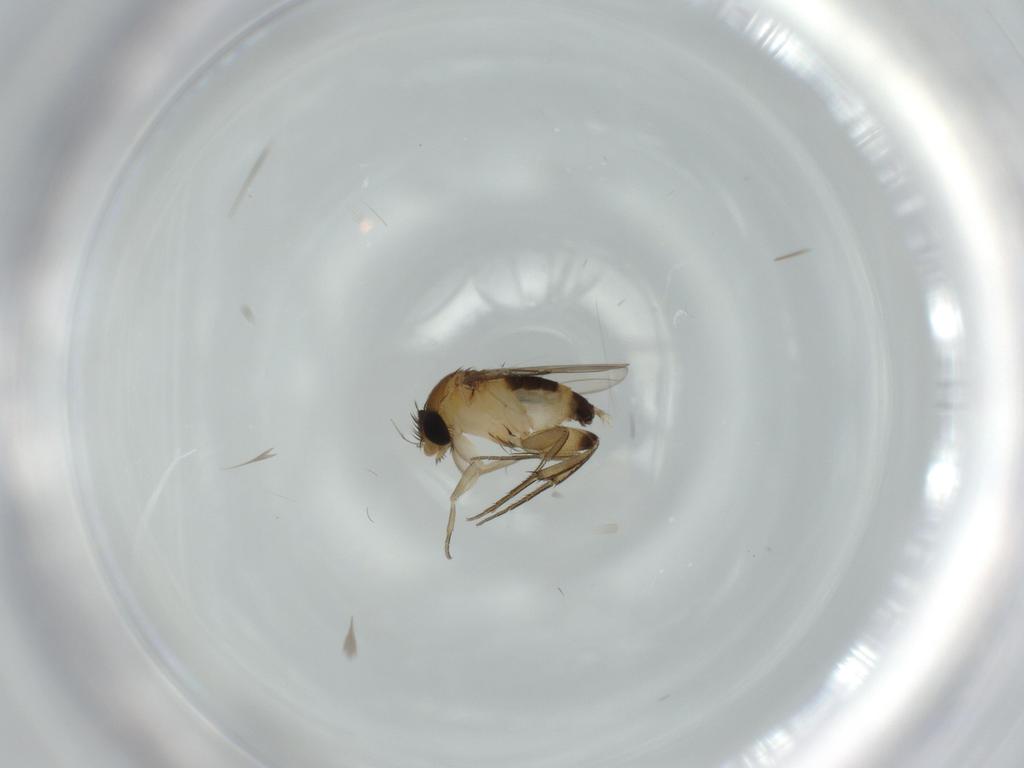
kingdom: Animalia
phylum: Arthropoda
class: Insecta
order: Diptera
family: Phoridae
